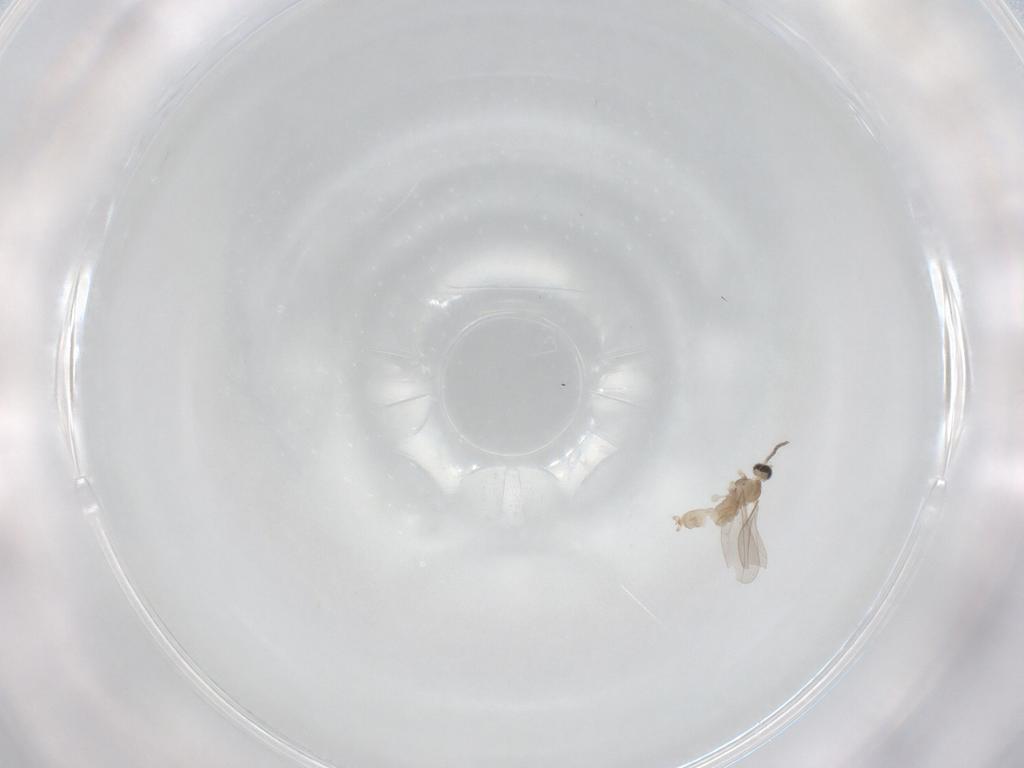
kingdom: Animalia
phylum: Arthropoda
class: Insecta
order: Diptera
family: Cecidomyiidae
